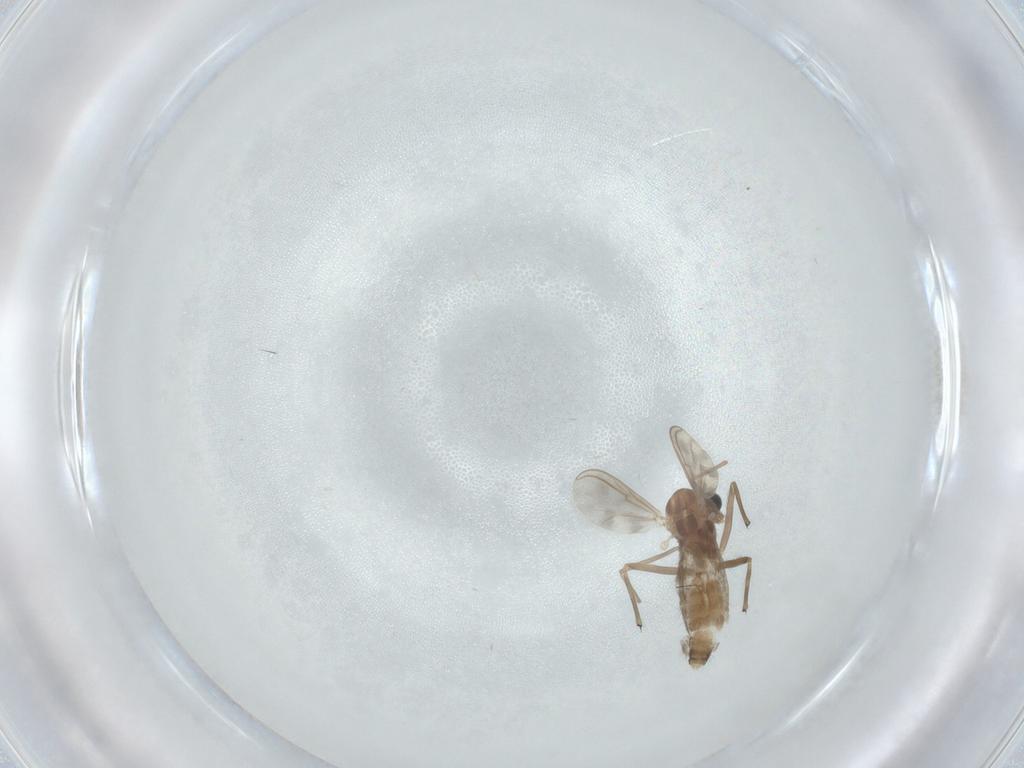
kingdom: Animalia
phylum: Arthropoda
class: Insecta
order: Diptera
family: Chironomidae
